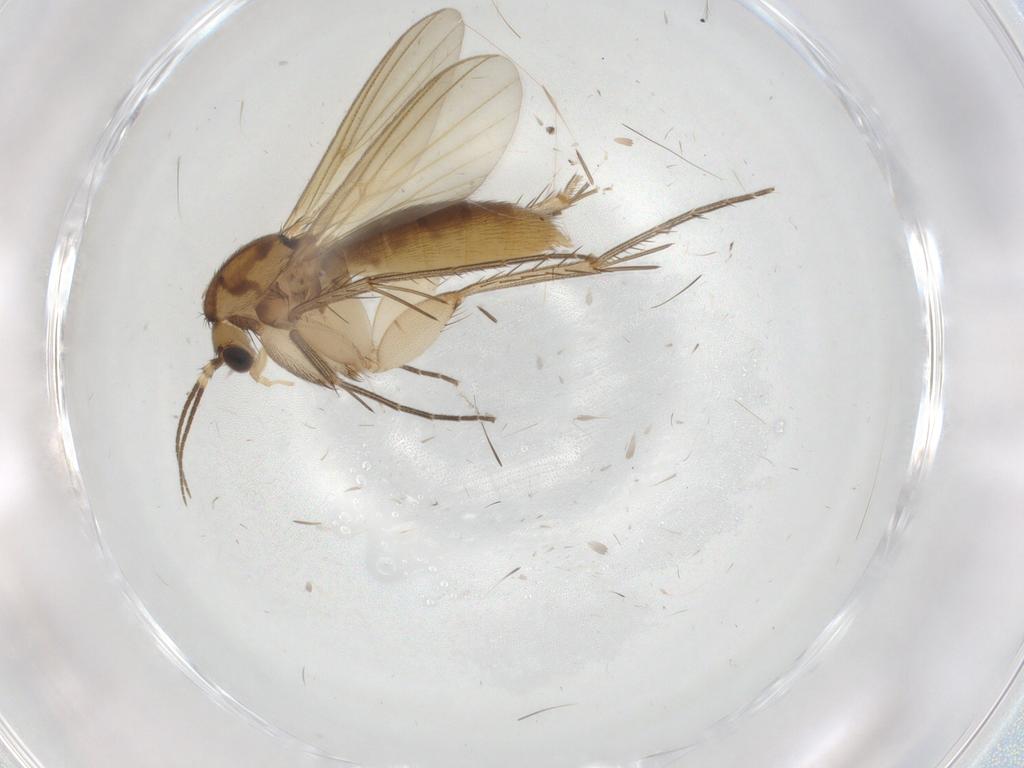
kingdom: Animalia
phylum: Arthropoda
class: Insecta
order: Diptera
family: Mycetophilidae
